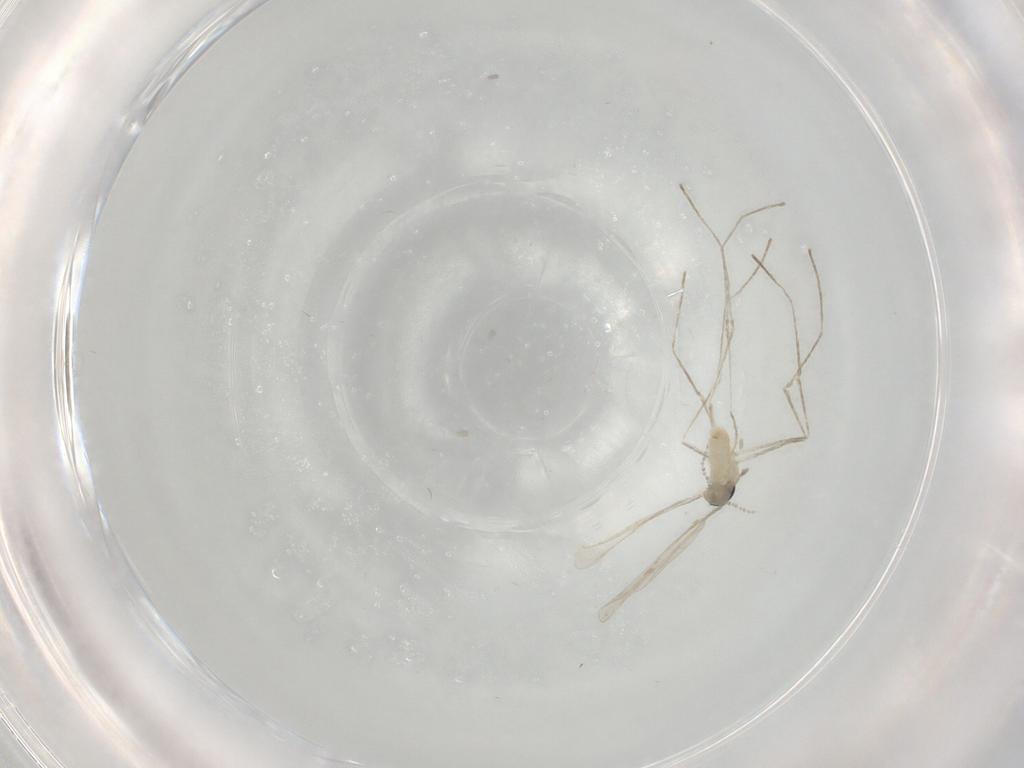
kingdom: Animalia
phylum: Arthropoda
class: Insecta
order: Diptera
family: Cecidomyiidae
